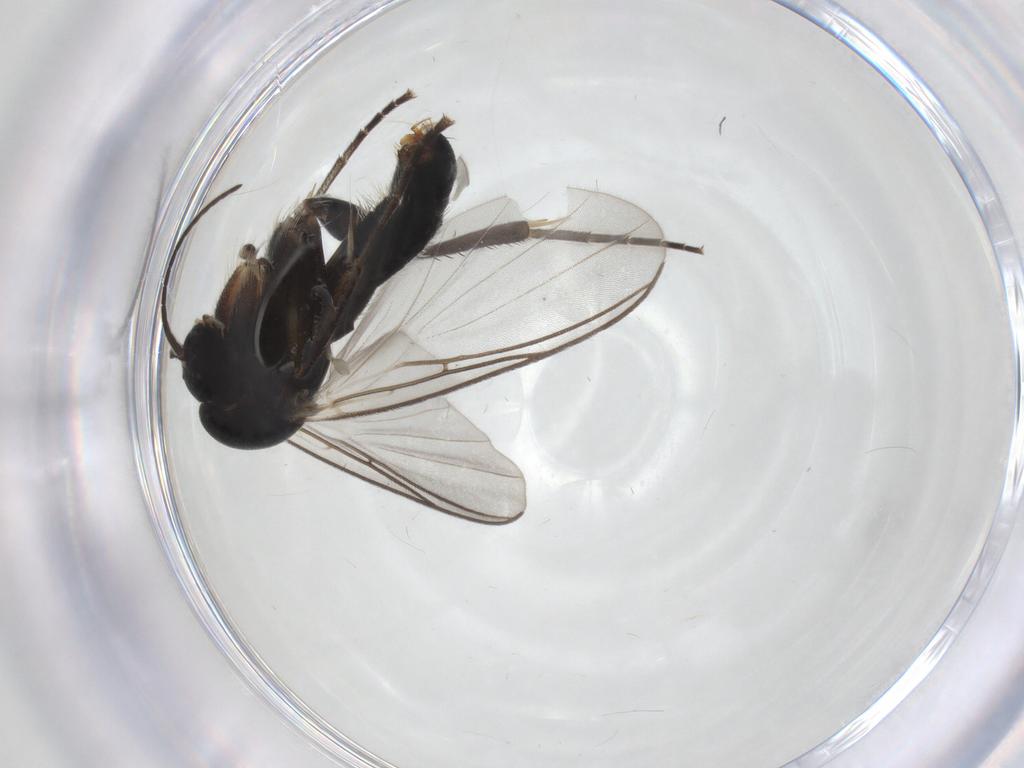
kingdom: Animalia
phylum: Arthropoda
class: Insecta
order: Diptera
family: Mycetophilidae
